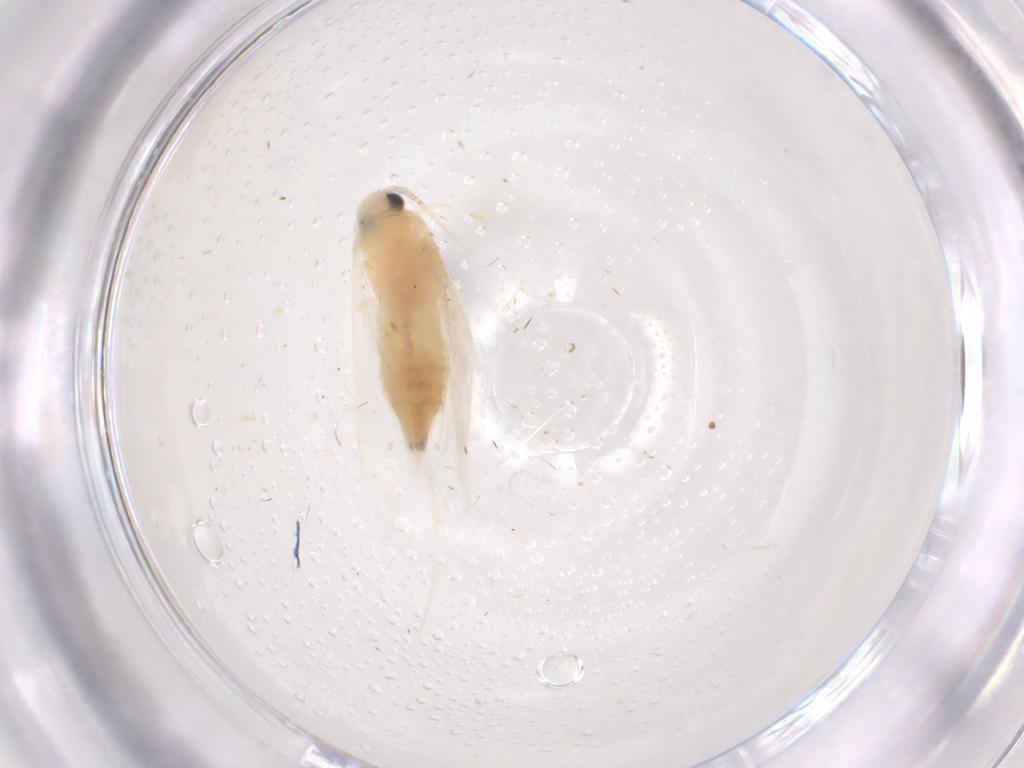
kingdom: Animalia
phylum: Arthropoda
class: Insecta
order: Lepidoptera
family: Gelechiidae
